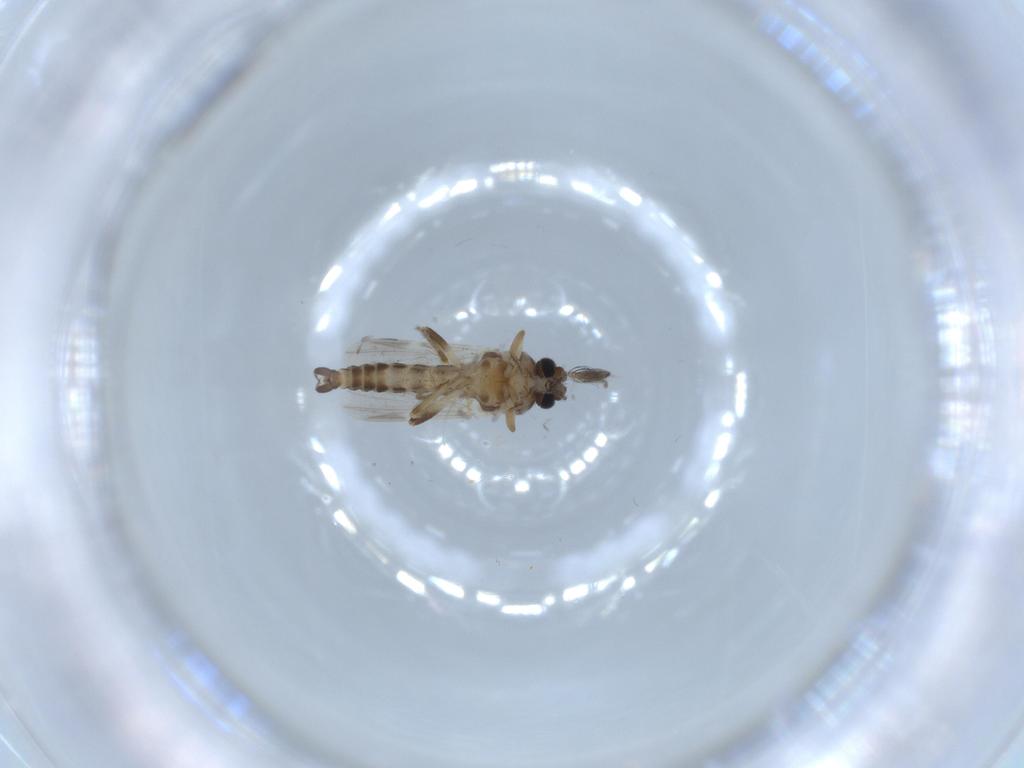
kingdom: Animalia
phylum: Arthropoda
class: Insecta
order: Diptera
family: Ceratopogonidae
